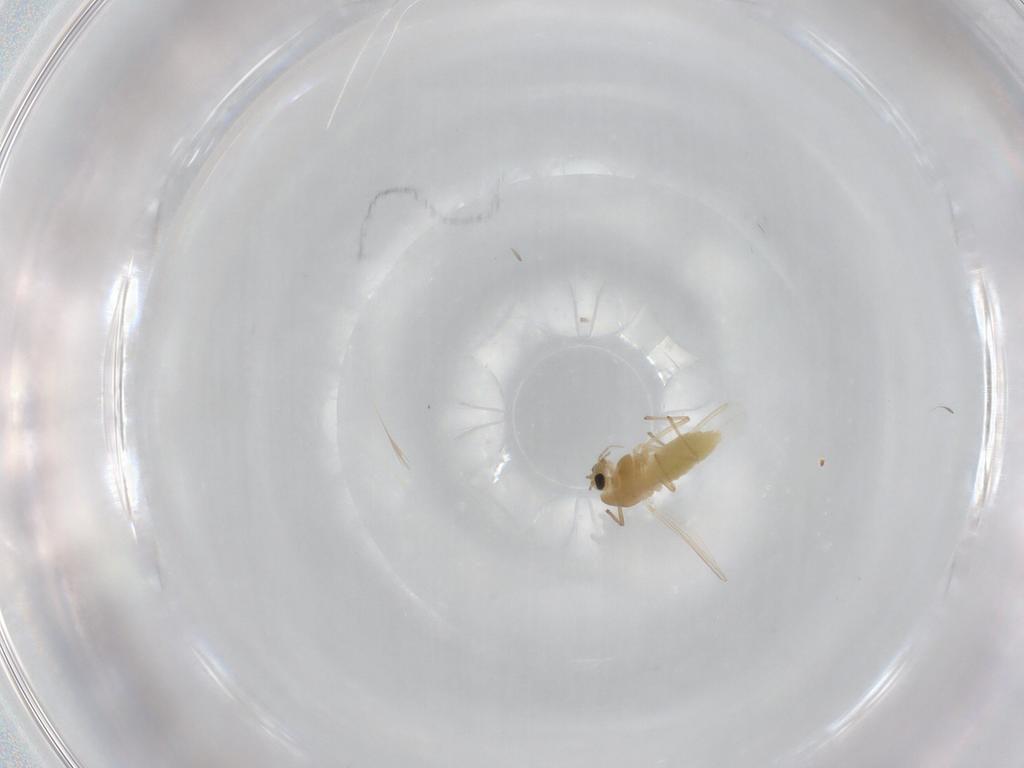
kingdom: Animalia
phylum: Arthropoda
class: Insecta
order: Diptera
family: Chironomidae
